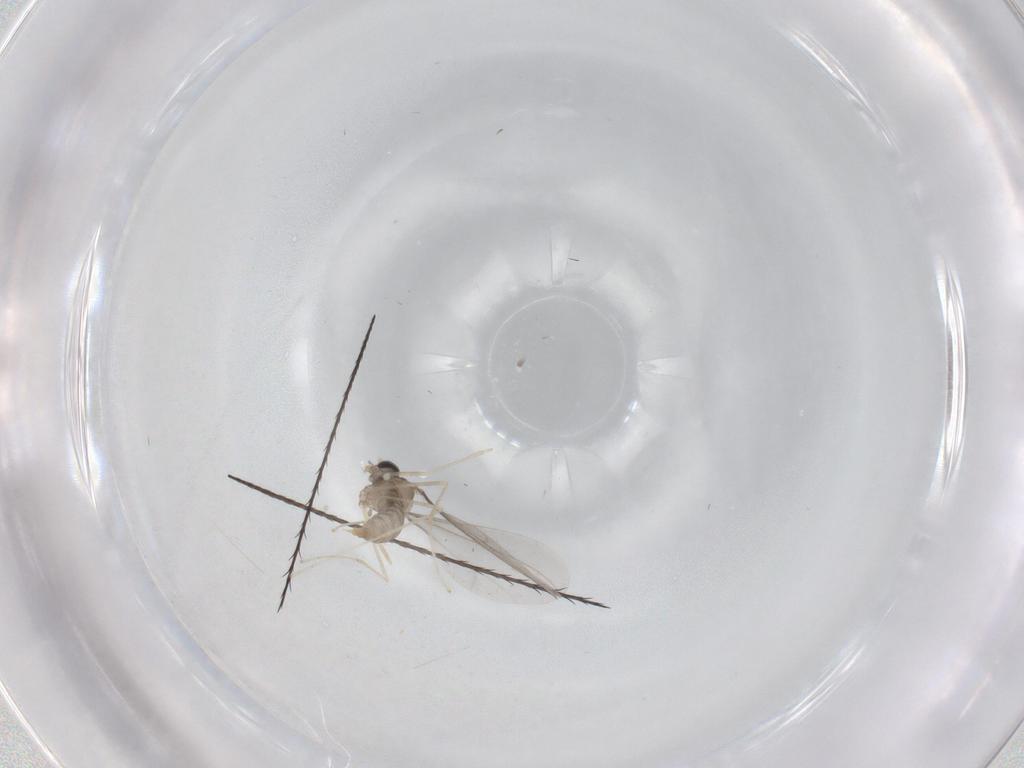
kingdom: Animalia
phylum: Arthropoda
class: Insecta
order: Diptera
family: Cecidomyiidae
